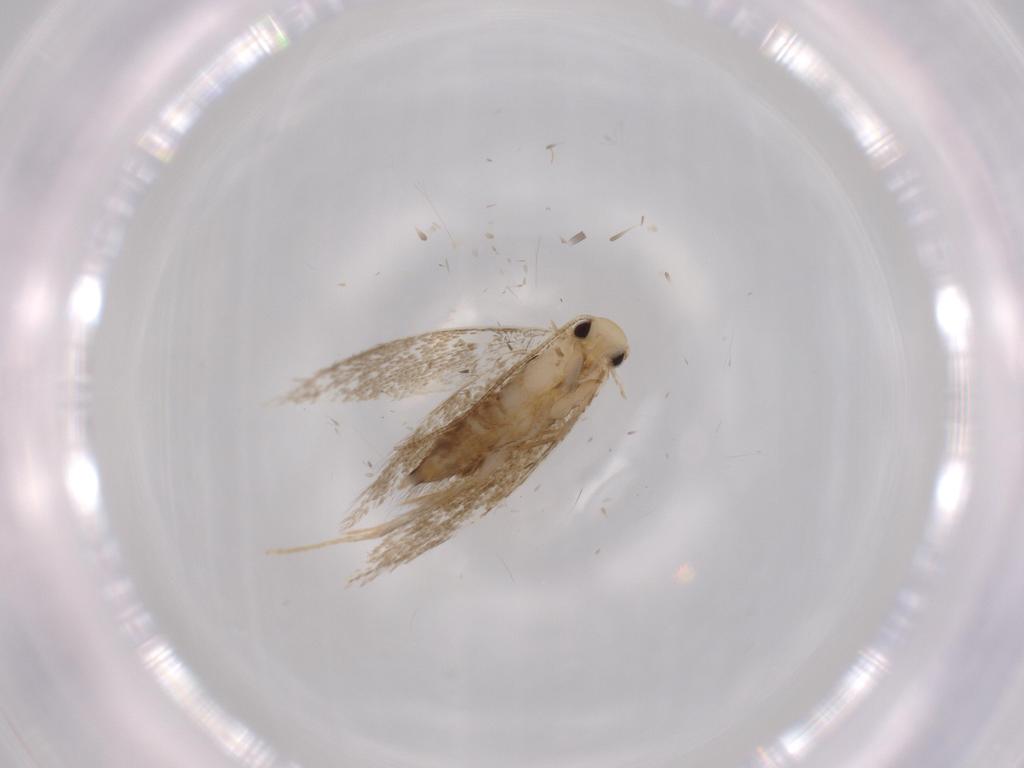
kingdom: Animalia
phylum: Arthropoda
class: Insecta
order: Lepidoptera
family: Tineidae
